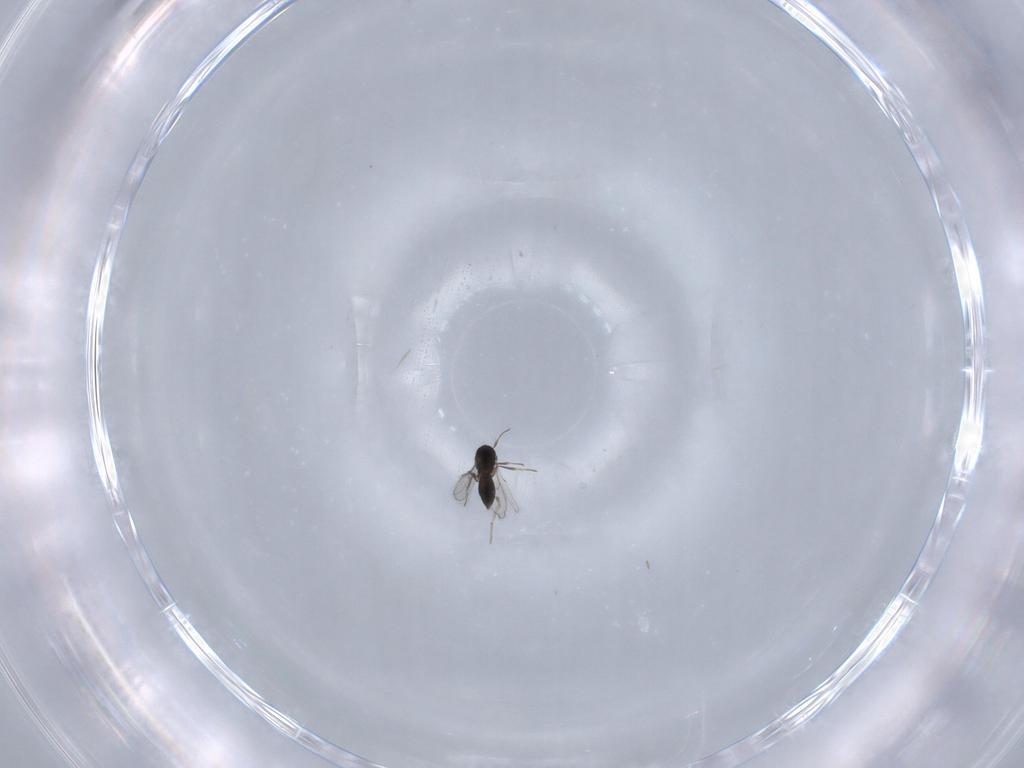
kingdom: Animalia
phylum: Arthropoda
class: Insecta
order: Hymenoptera
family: Scelionidae
